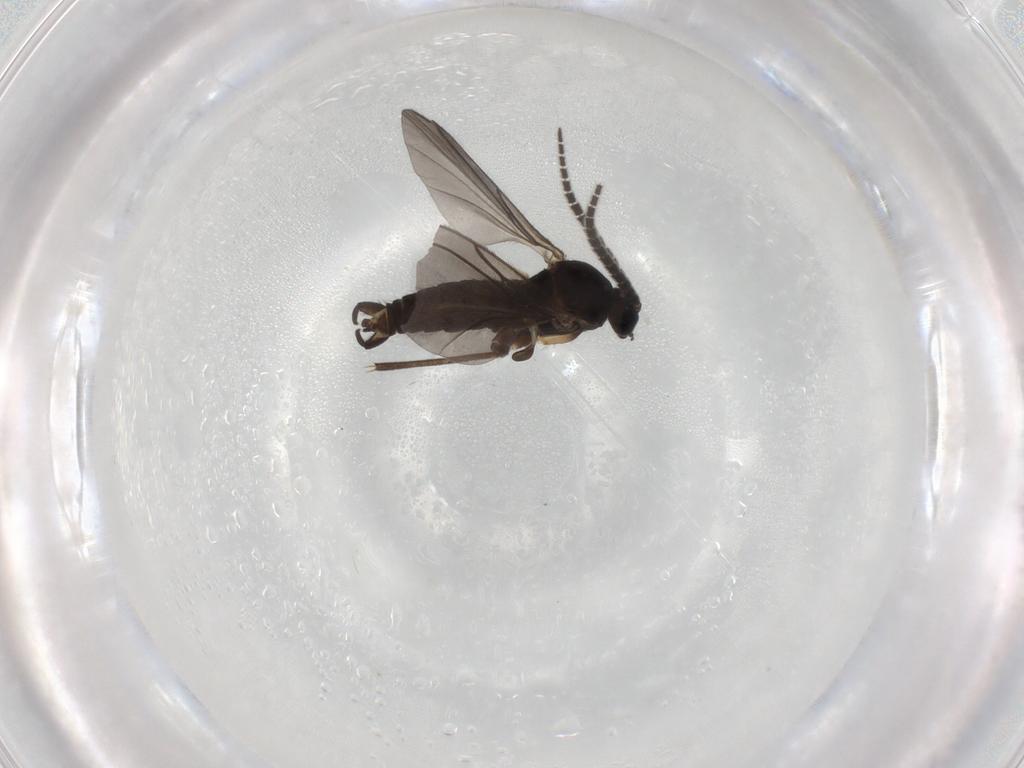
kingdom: Animalia
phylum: Arthropoda
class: Insecta
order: Diptera
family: Sciaridae
